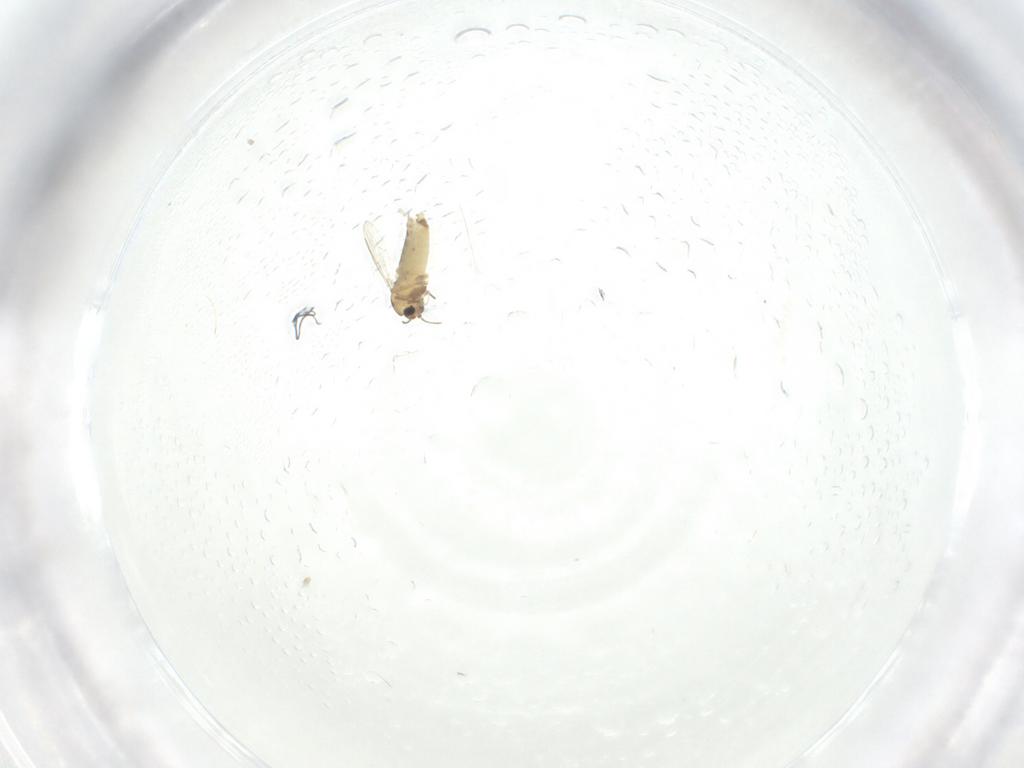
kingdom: Animalia
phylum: Arthropoda
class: Insecta
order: Diptera
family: Chironomidae
